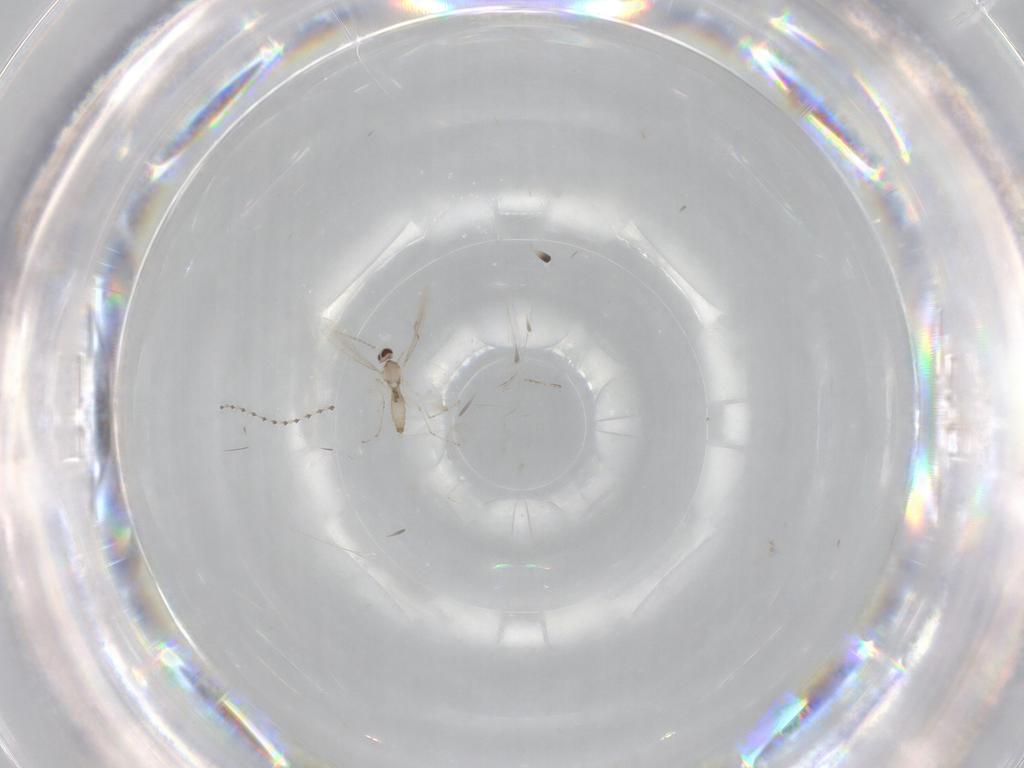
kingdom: Animalia
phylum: Arthropoda
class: Insecta
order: Diptera
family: Cecidomyiidae
